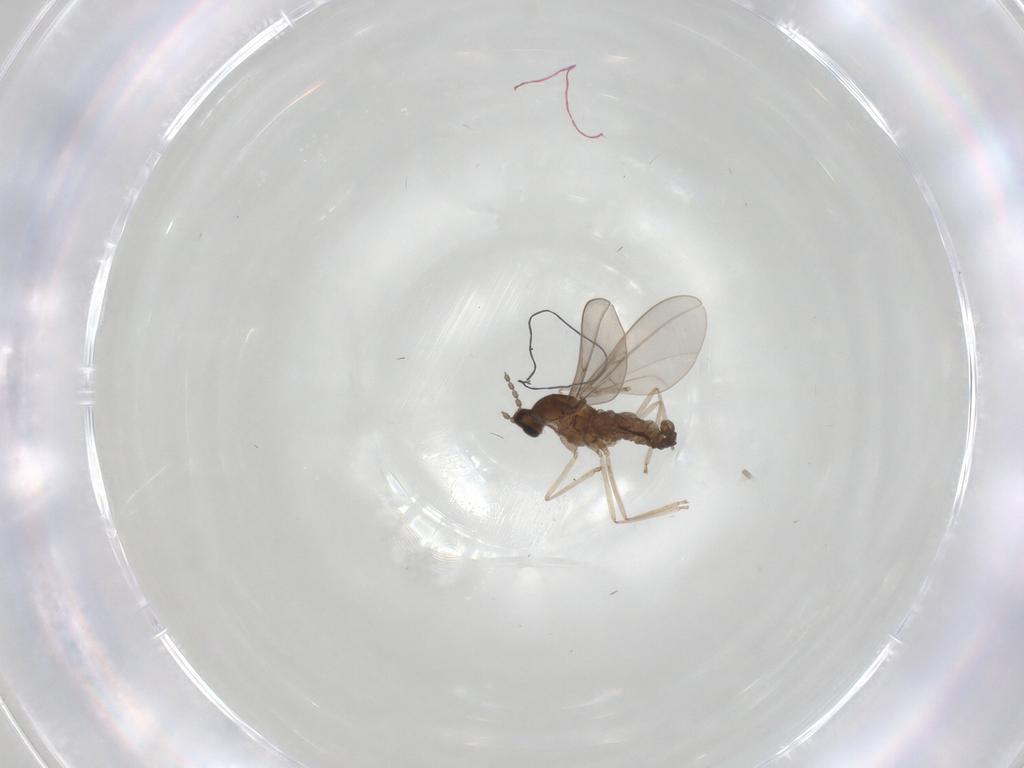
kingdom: Animalia
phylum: Arthropoda
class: Insecta
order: Diptera
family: Cecidomyiidae
